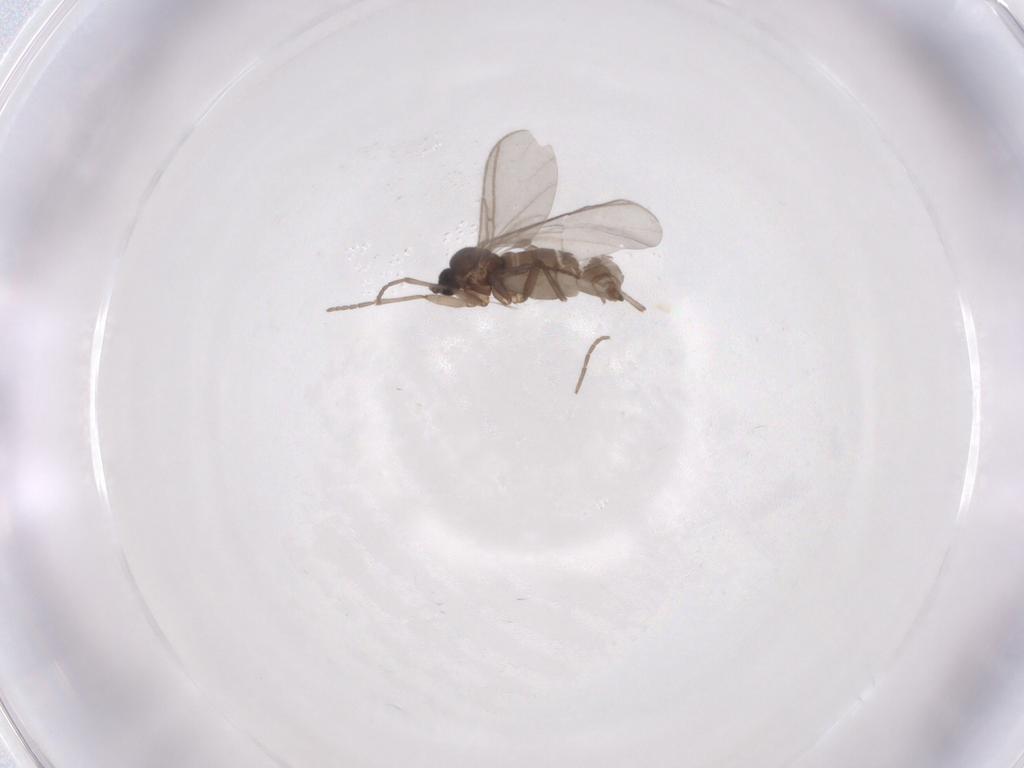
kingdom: Animalia
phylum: Arthropoda
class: Insecta
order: Diptera
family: Sciaridae
